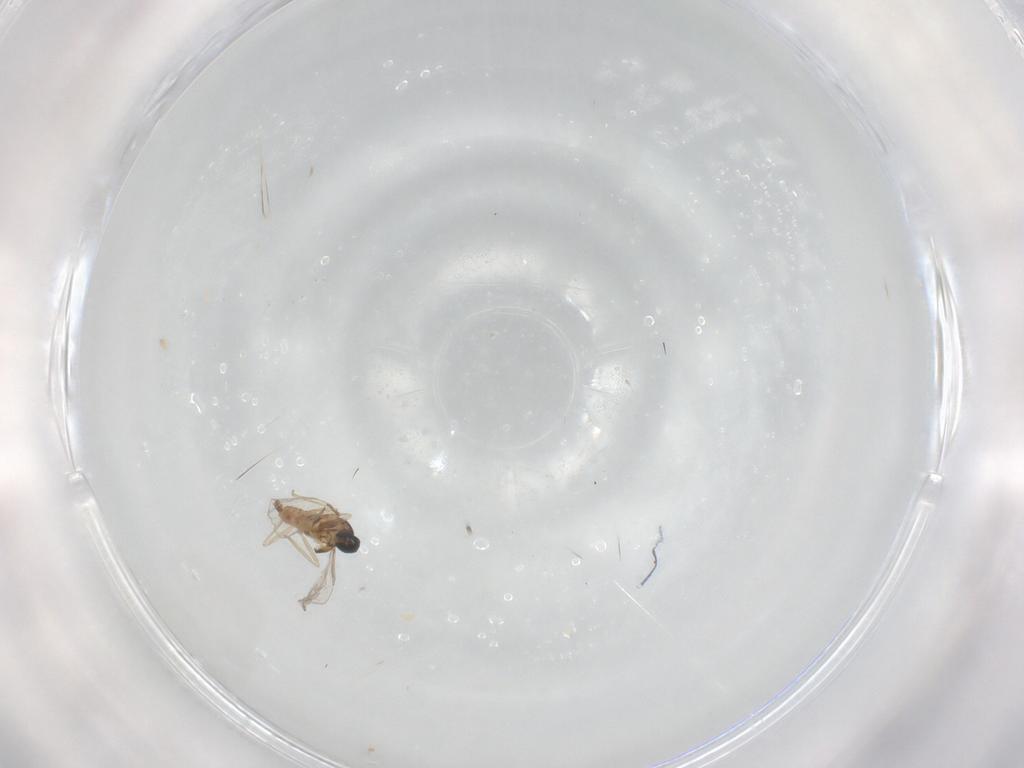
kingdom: Animalia
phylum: Arthropoda
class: Insecta
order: Diptera
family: Cecidomyiidae
